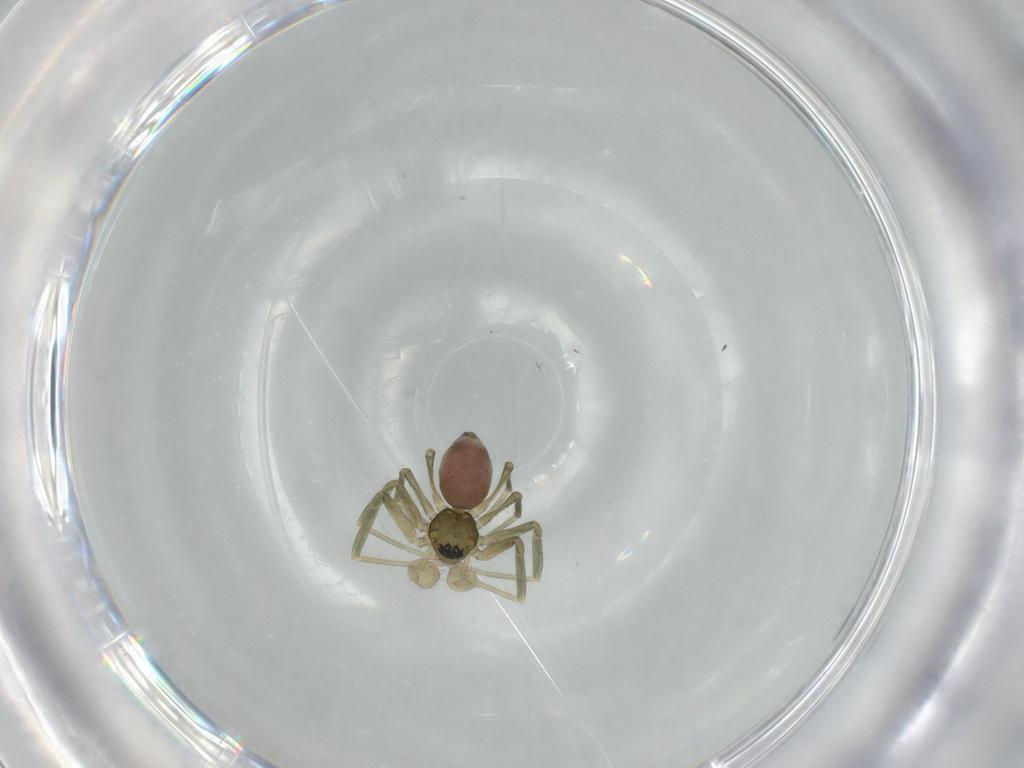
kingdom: Animalia
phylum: Arthropoda
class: Arachnida
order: Araneae
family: Linyphiidae
